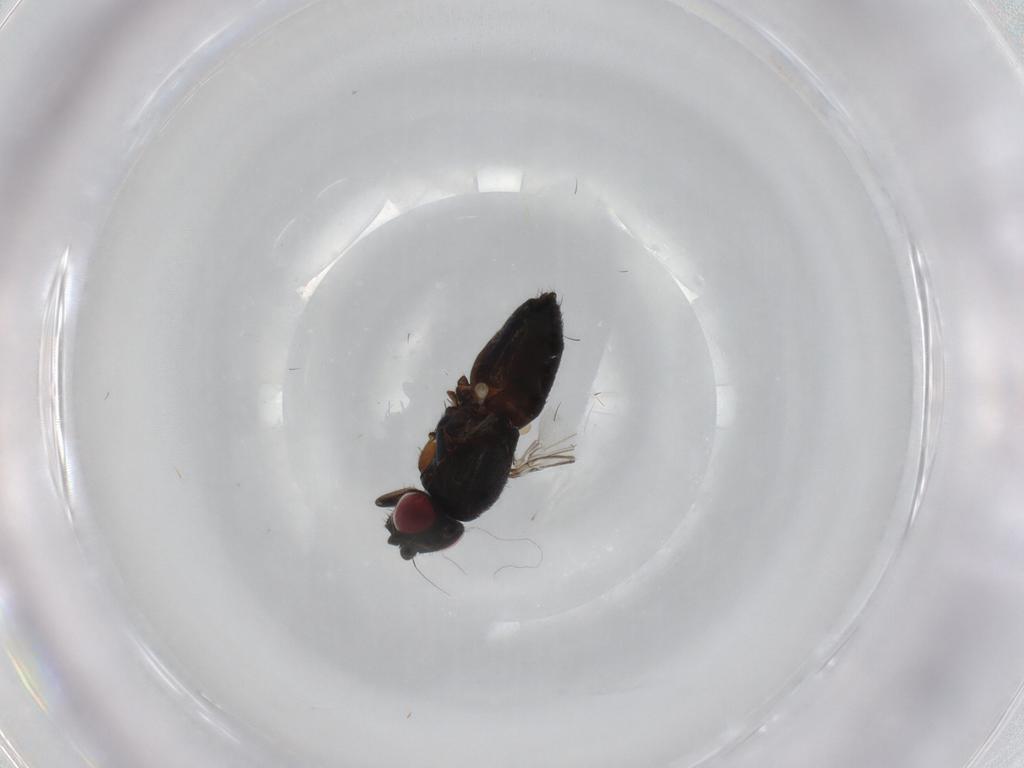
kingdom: Animalia
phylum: Arthropoda
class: Insecta
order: Diptera
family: Milichiidae
